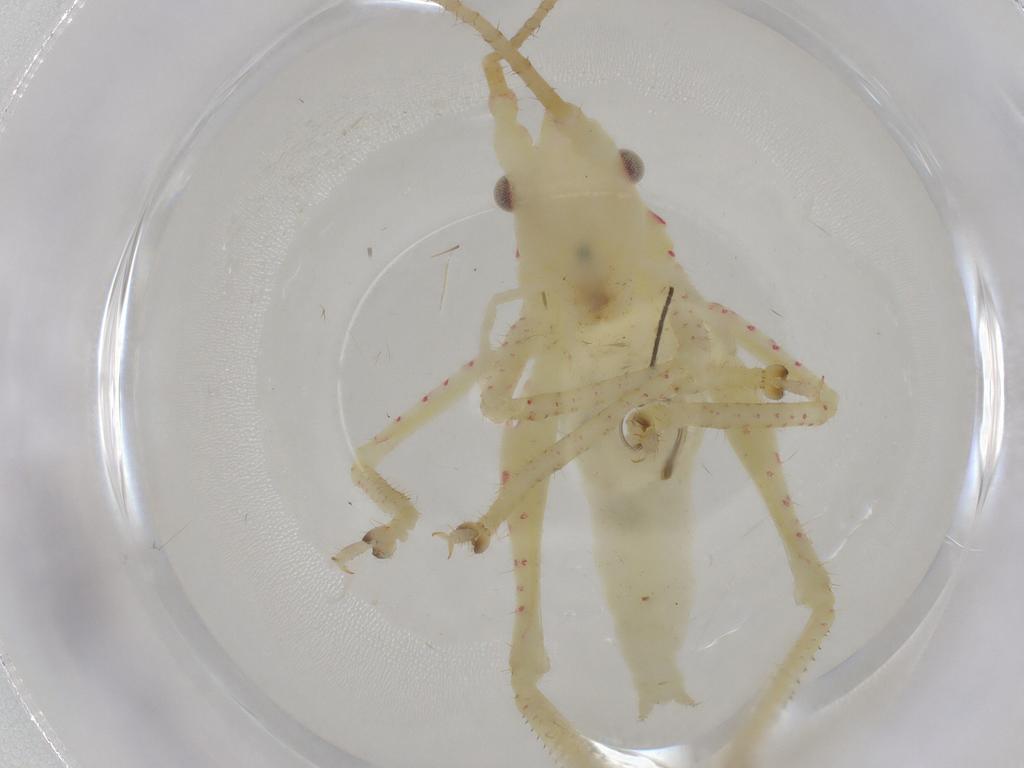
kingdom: Animalia
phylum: Arthropoda
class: Insecta
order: Orthoptera
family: Tettigoniidae
